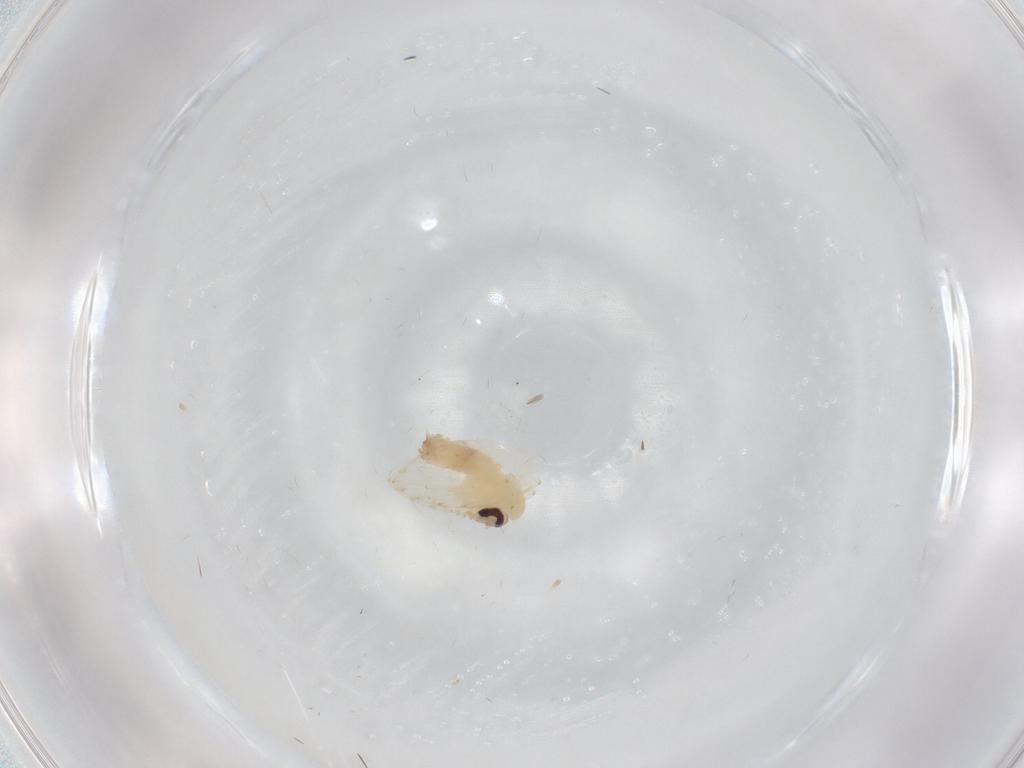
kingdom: Animalia
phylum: Arthropoda
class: Insecta
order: Diptera
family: Psychodidae
